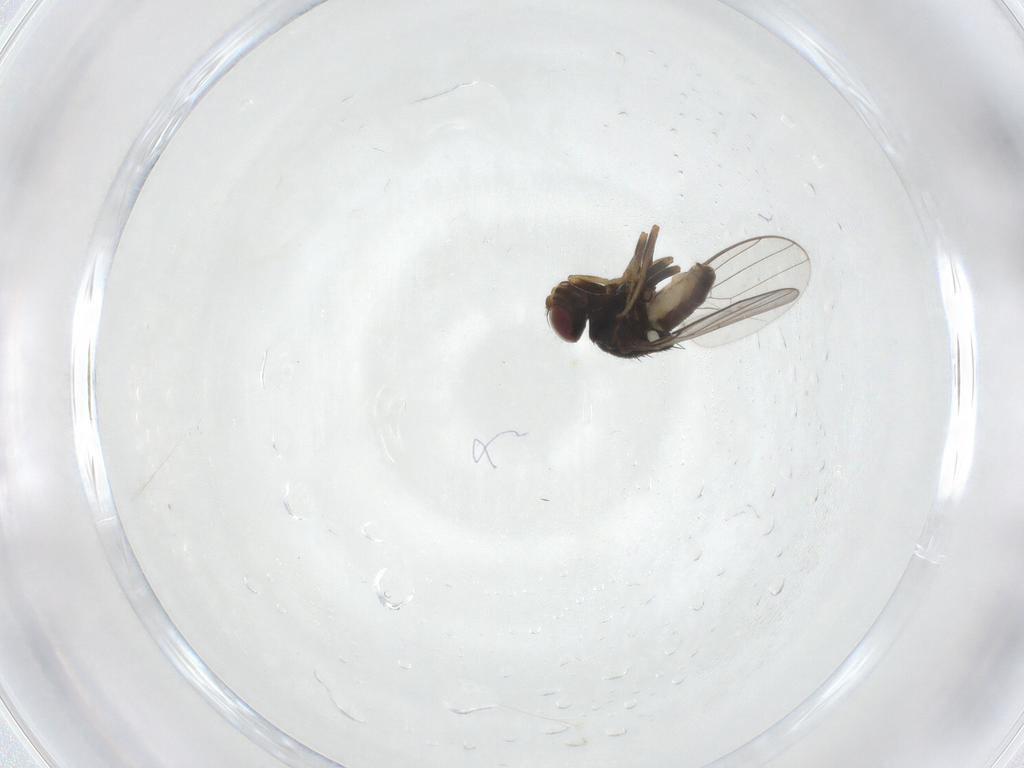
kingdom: Animalia
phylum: Arthropoda
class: Insecta
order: Diptera
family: Chloropidae
